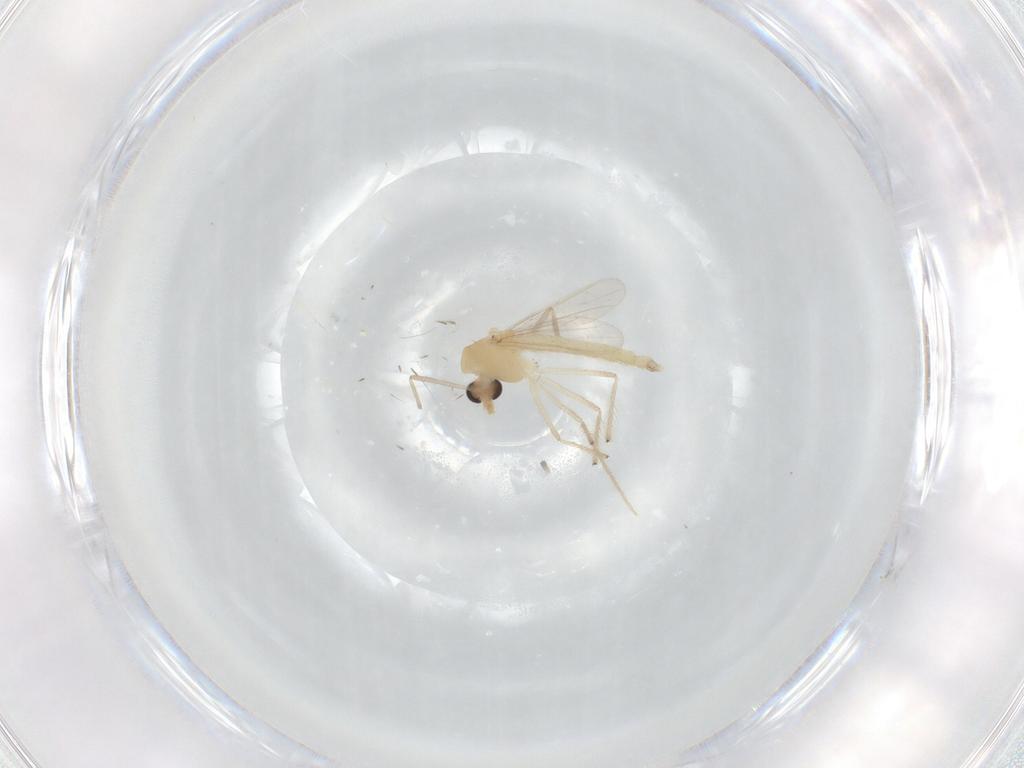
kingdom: Animalia
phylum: Arthropoda
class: Insecta
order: Diptera
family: Chironomidae
